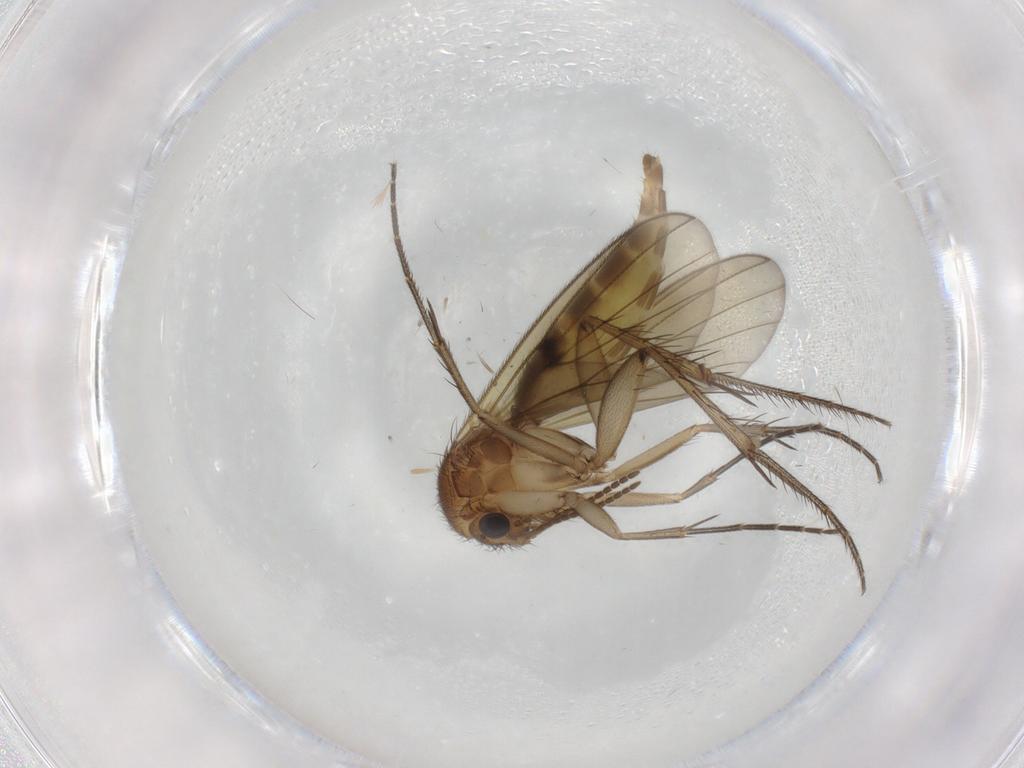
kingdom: Animalia
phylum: Arthropoda
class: Insecta
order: Diptera
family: Mycetophilidae
